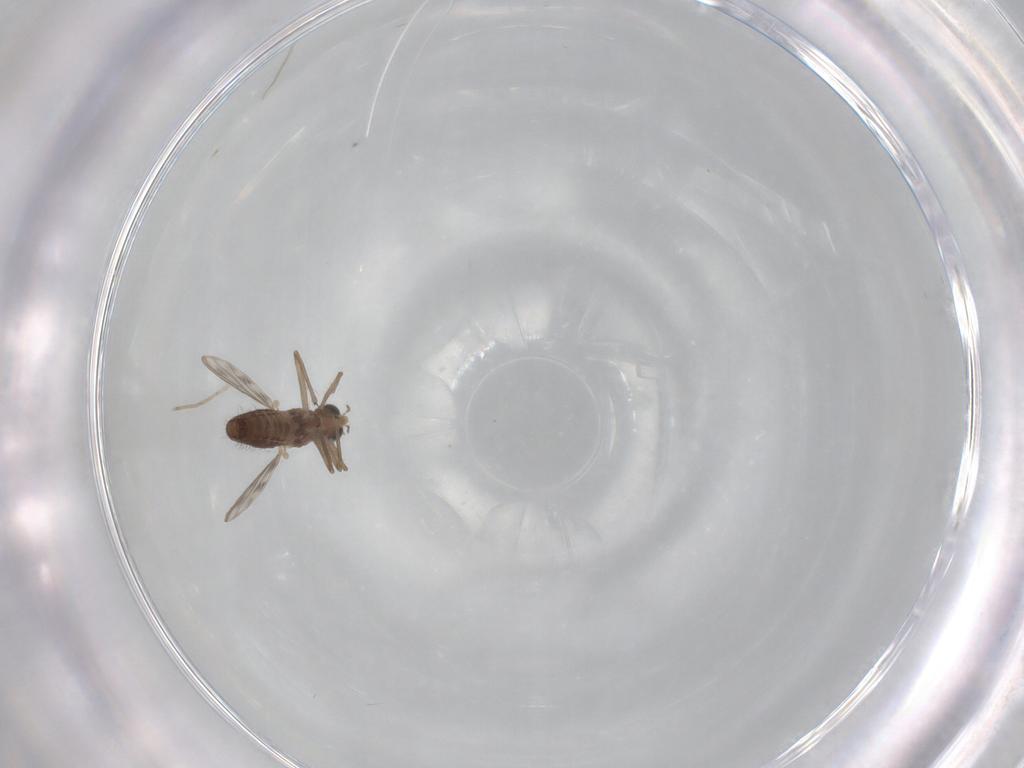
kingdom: Animalia
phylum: Arthropoda
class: Insecta
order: Diptera
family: Chironomidae
